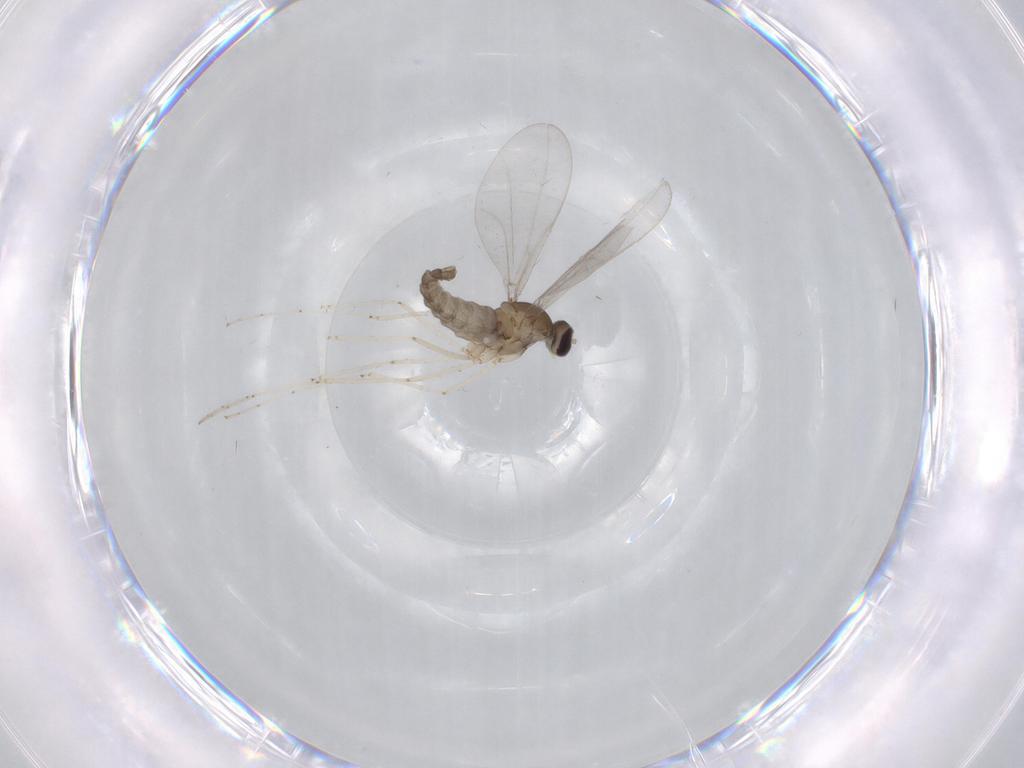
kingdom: Animalia
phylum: Arthropoda
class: Insecta
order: Diptera
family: Cecidomyiidae
